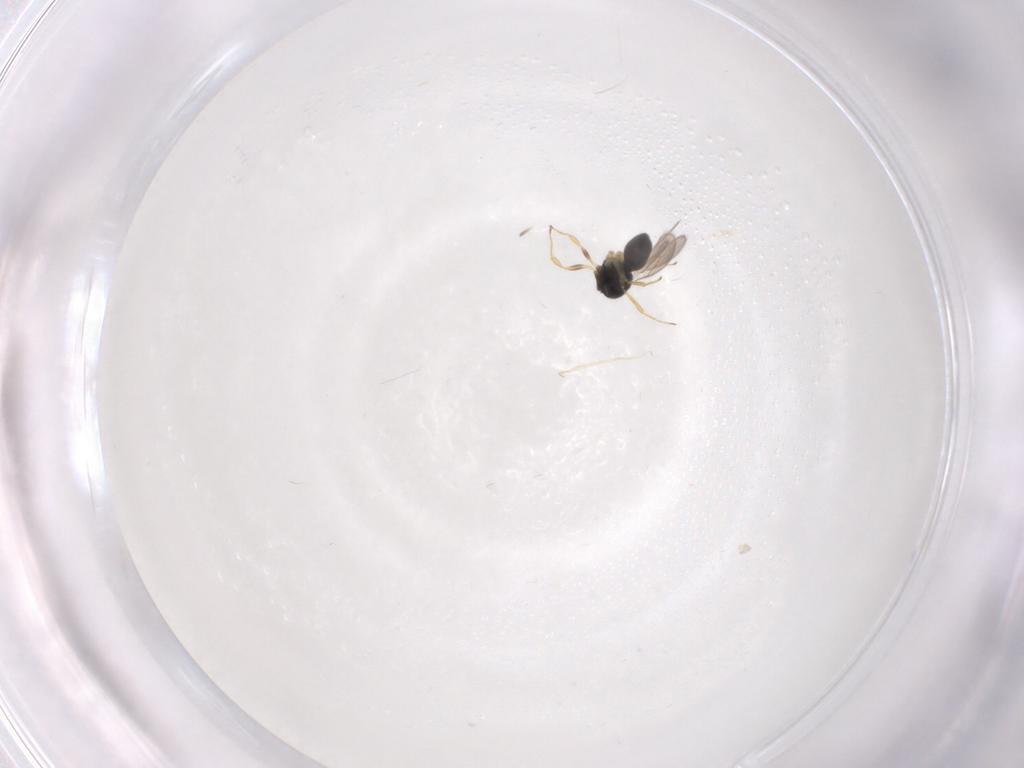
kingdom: Animalia
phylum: Arthropoda
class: Insecta
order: Hymenoptera
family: Scelionidae
